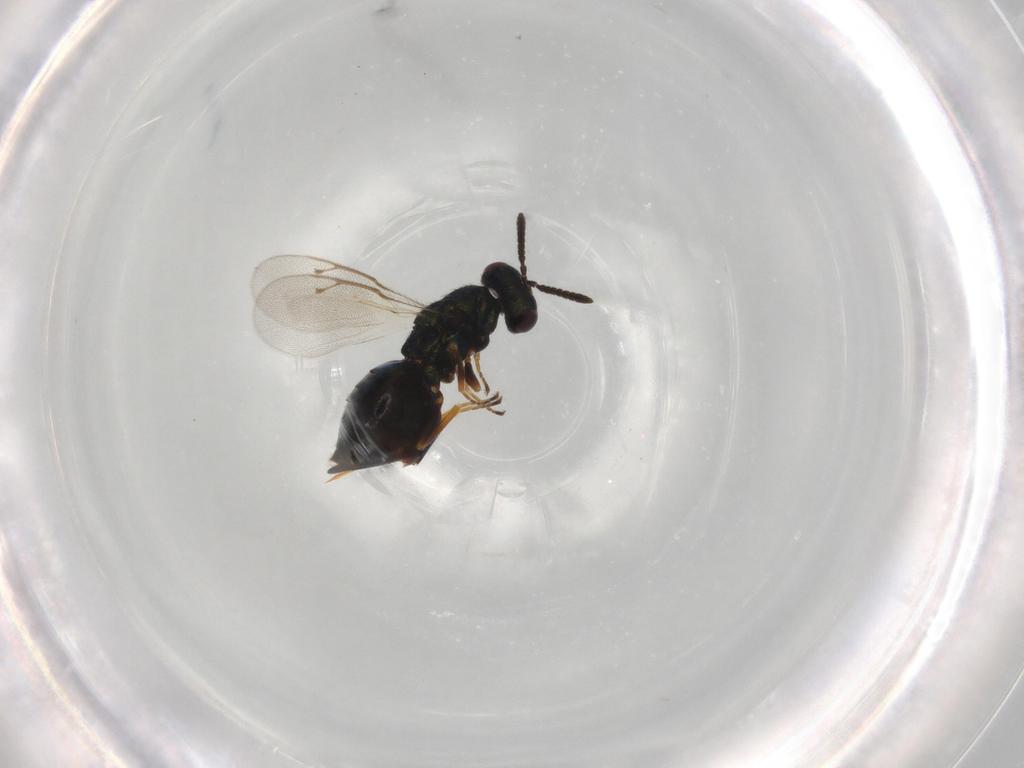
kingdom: Animalia
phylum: Arthropoda
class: Insecta
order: Hymenoptera
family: Pteromalidae
